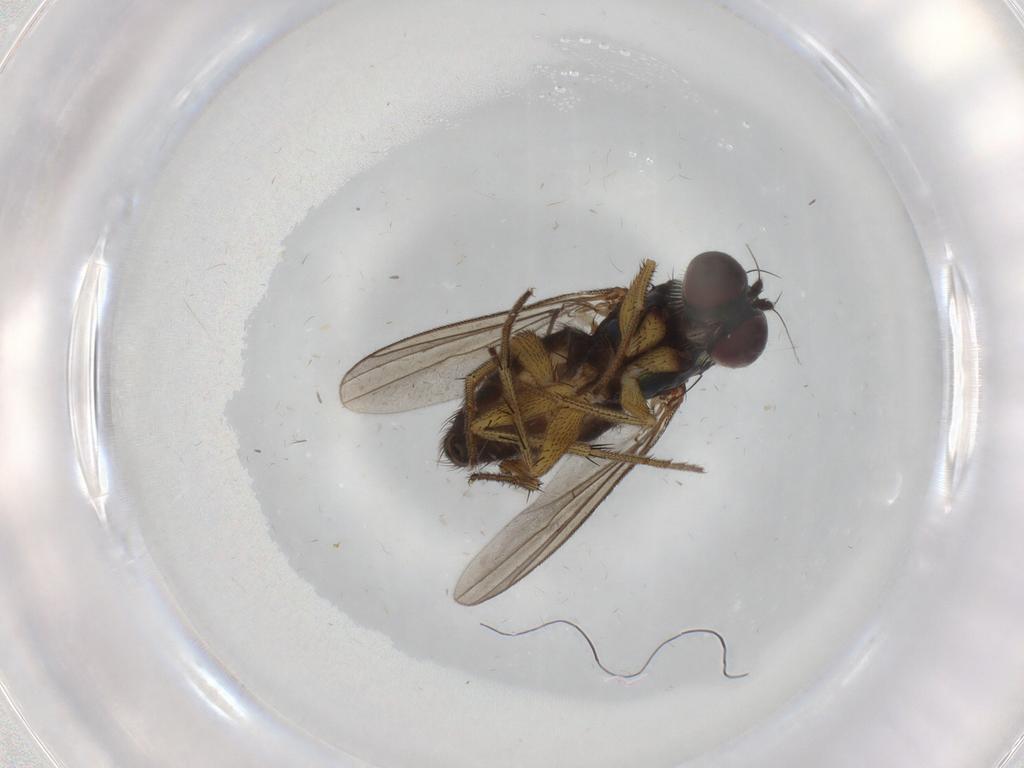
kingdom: Animalia
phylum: Arthropoda
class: Insecta
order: Diptera
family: Dolichopodidae
